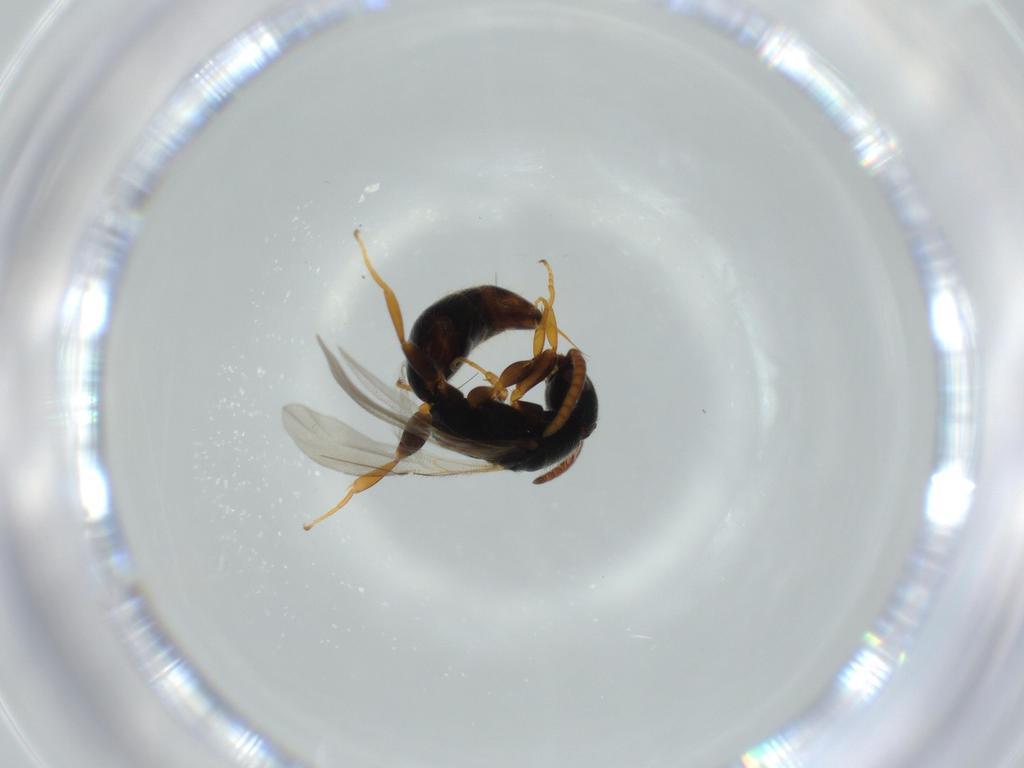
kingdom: Animalia
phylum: Arthropoda
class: Insecta
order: Hymenoptera
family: Bethylidae
